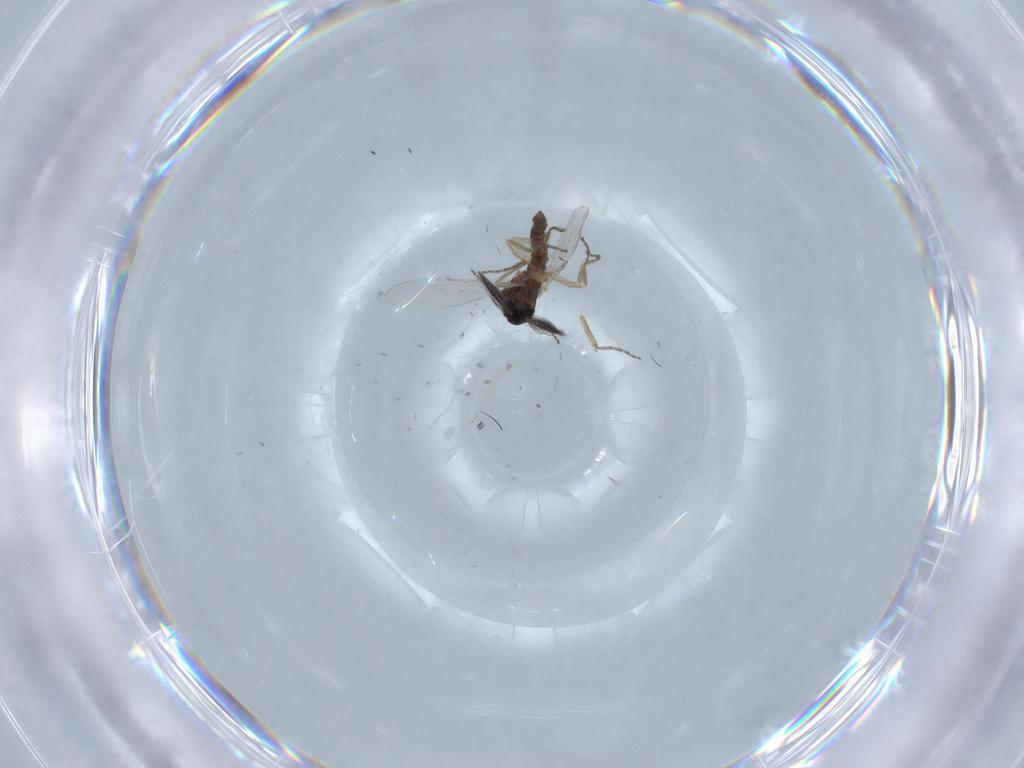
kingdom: Animalia
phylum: Arthropoda
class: Insecta
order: Diptera
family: Ceratopogonidae
